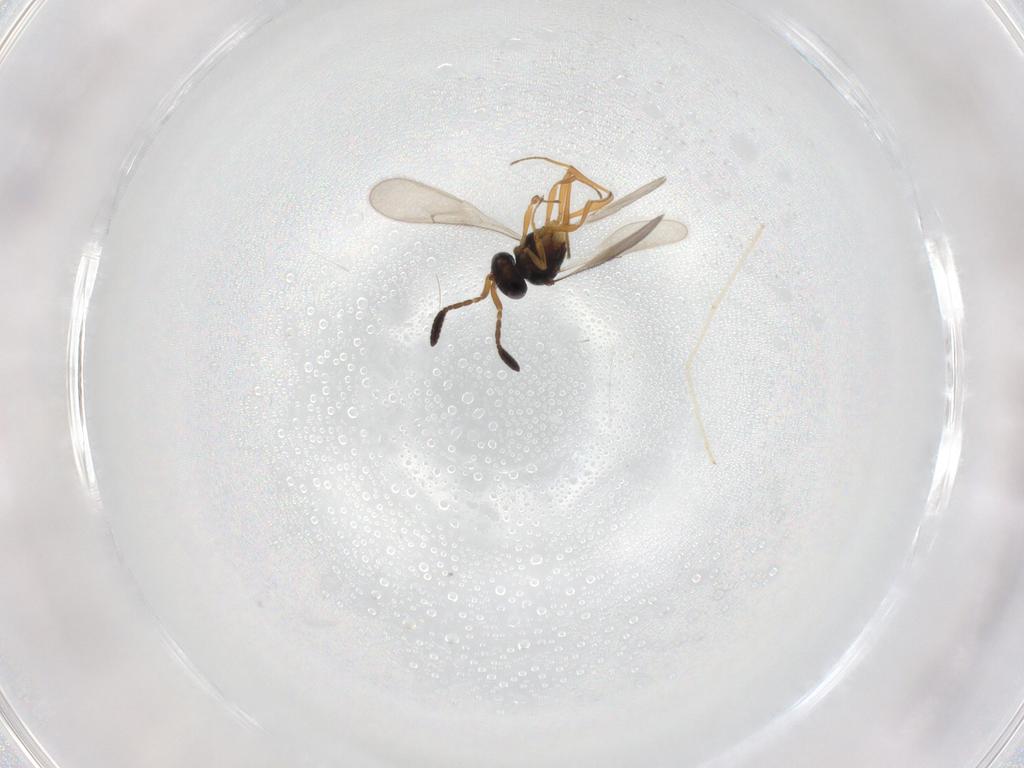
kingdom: Animalia
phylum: Arthropoda
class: Insecta
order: Hymenoptera
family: Scelionidae
